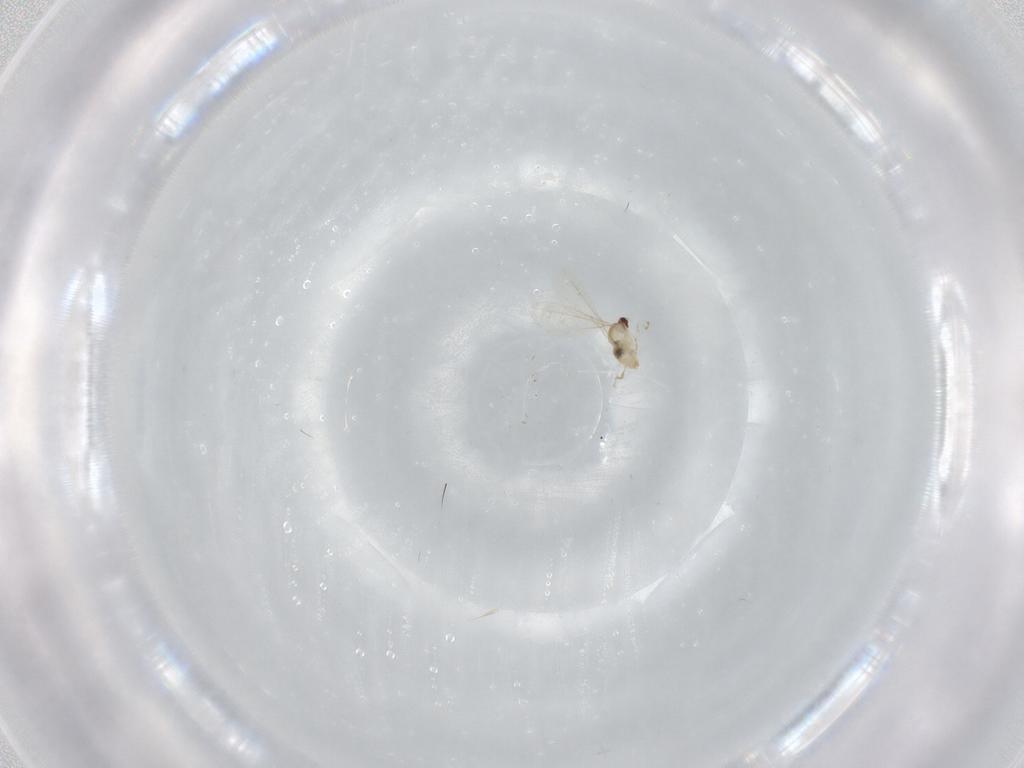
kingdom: Animalia
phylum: Arthropoda
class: Insecta
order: Diptera
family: Cecidomyiidae
